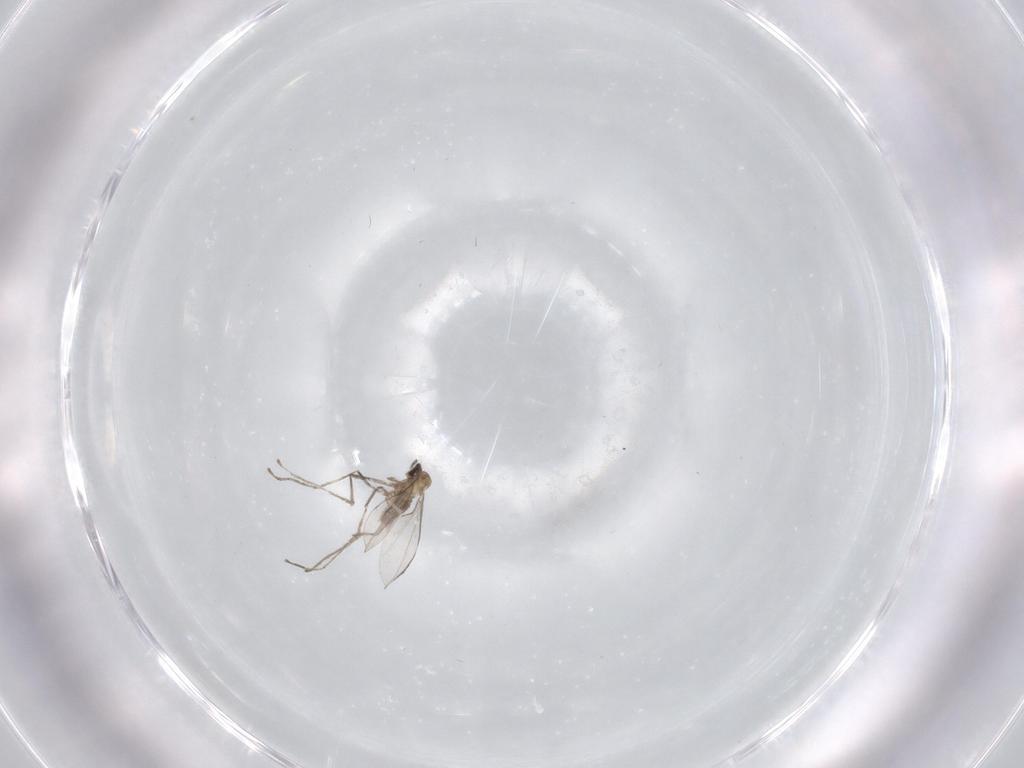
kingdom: Animalia
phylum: Arthropoda
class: Insecta
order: Diptera
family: Cecidomyiidae
